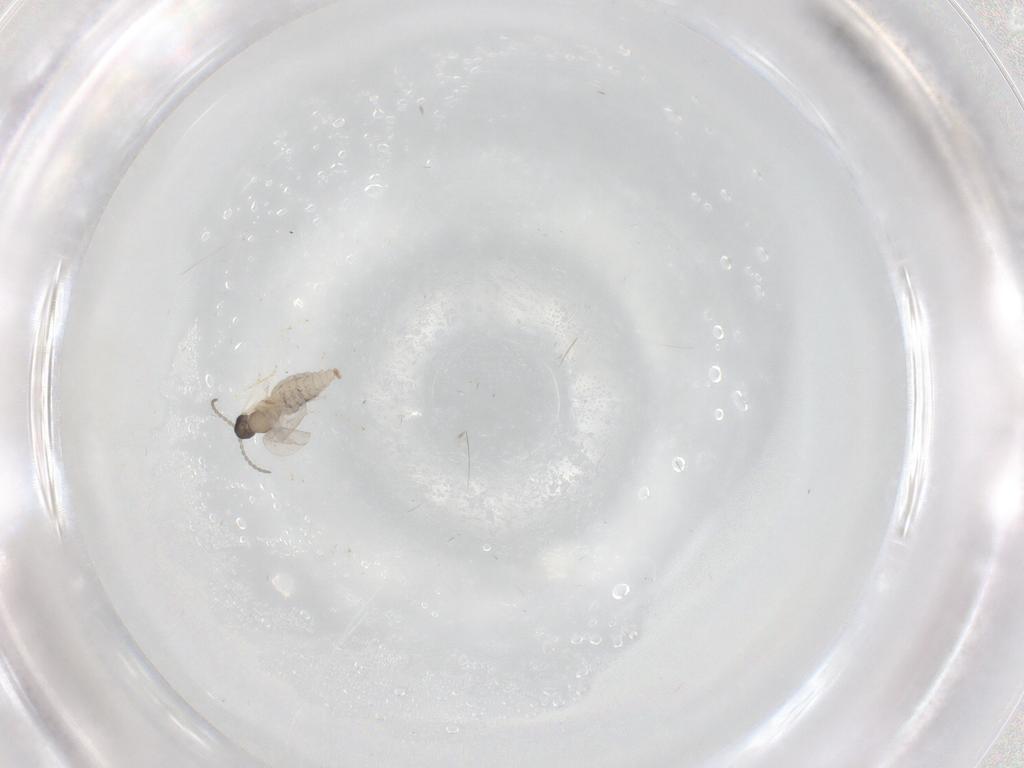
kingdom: Animalia
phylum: Arthropoda
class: Insecta
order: Diptera
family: Cecidomyiidae
